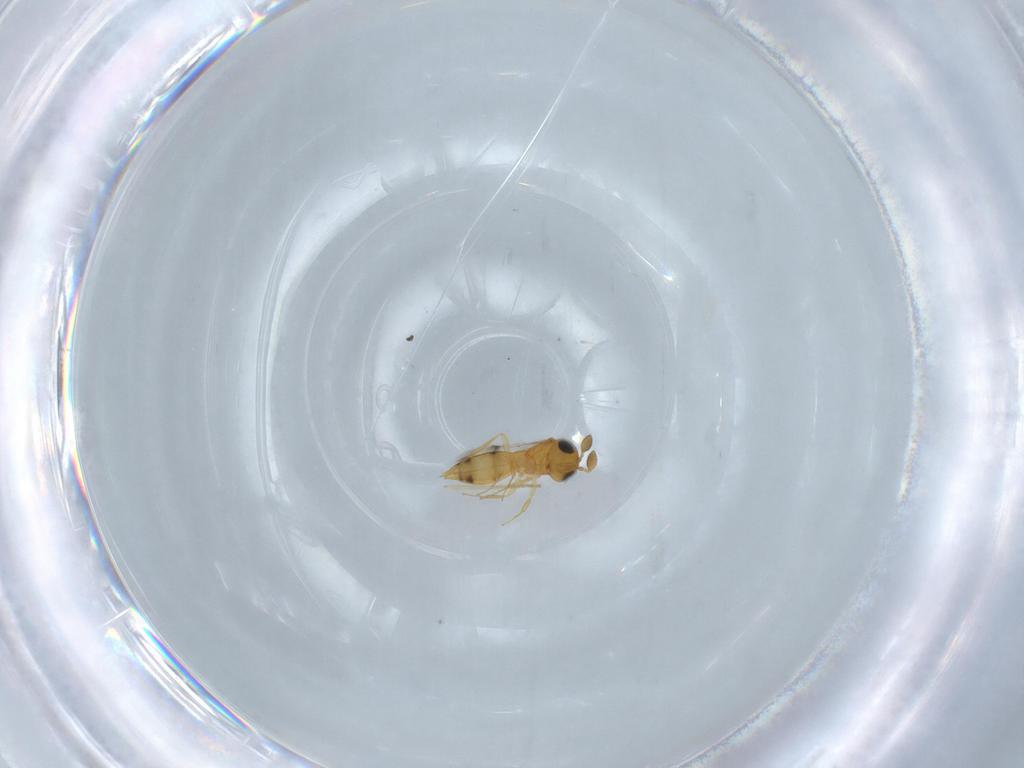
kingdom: Animalia
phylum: Arthropoda
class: Insecta
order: Hymenoptera
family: Scelionidae
